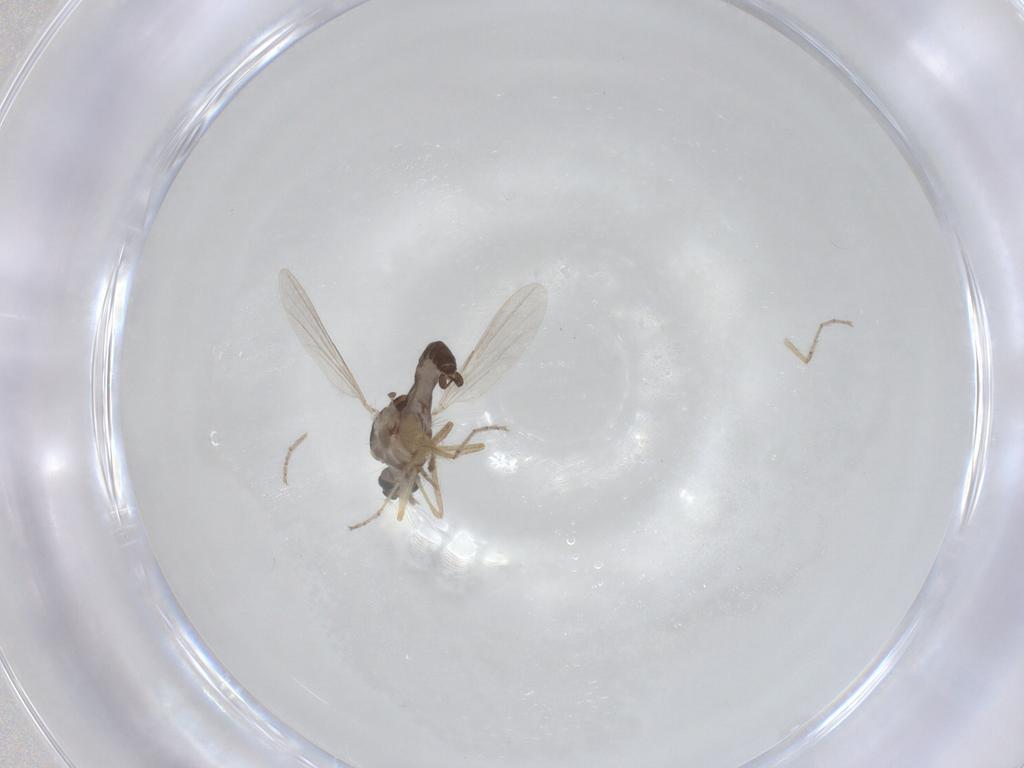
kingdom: Animalia
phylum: Arthropoda
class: Insecta
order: Diptera
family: Ceratopogonidae
